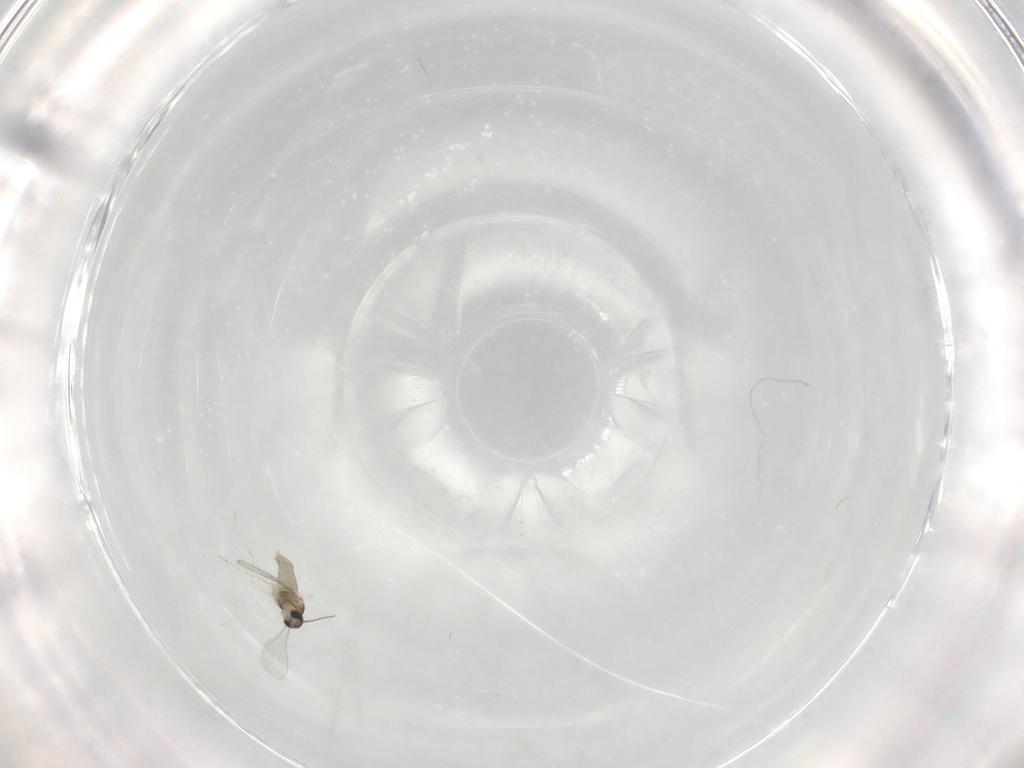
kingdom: Animalia
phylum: Arthropoda
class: Insecta
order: Diptera
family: Cecidomyiidae
